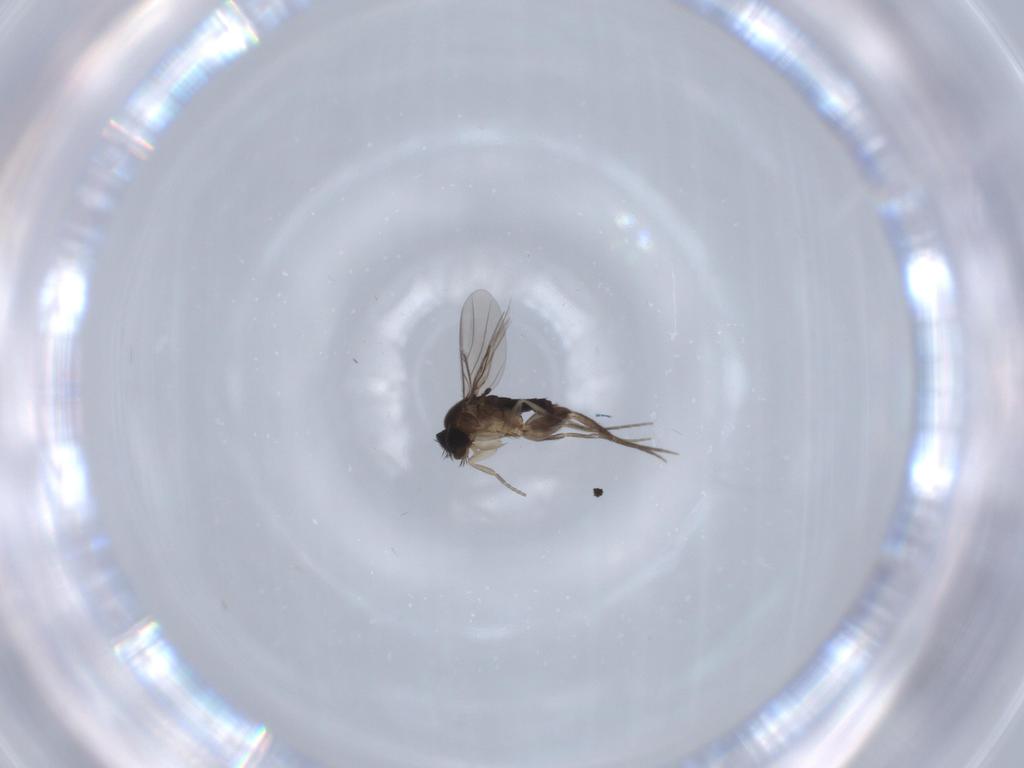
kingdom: Animalia
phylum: Arthropoda
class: Insecta
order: Diptera
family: Phoridae
